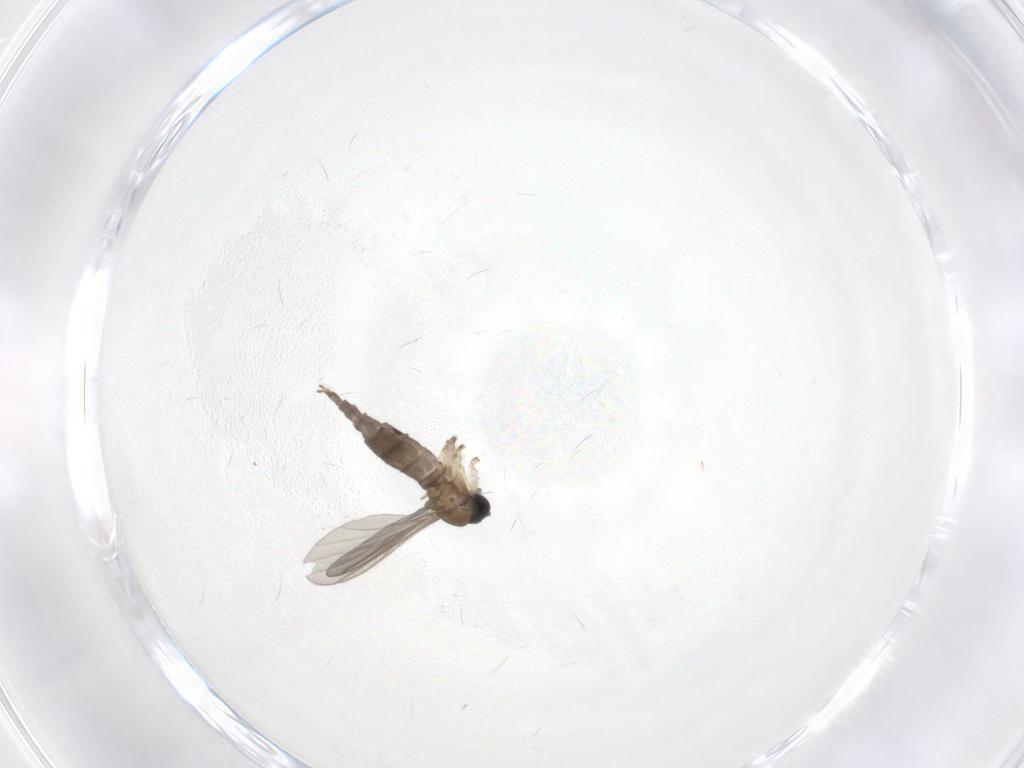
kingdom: Animalia
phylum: Arthropoda
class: Insecta
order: Diptera
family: Sciaridae
